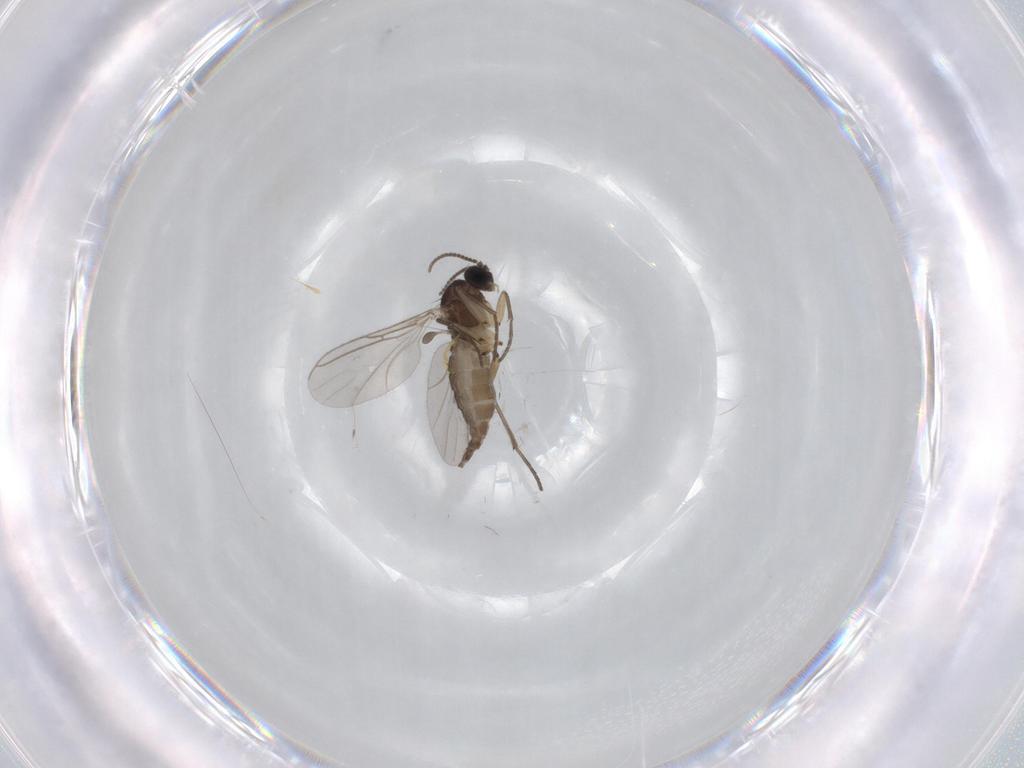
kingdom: Animalia
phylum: Arthropoda
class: Insecta
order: Diptera
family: Sciaridae
